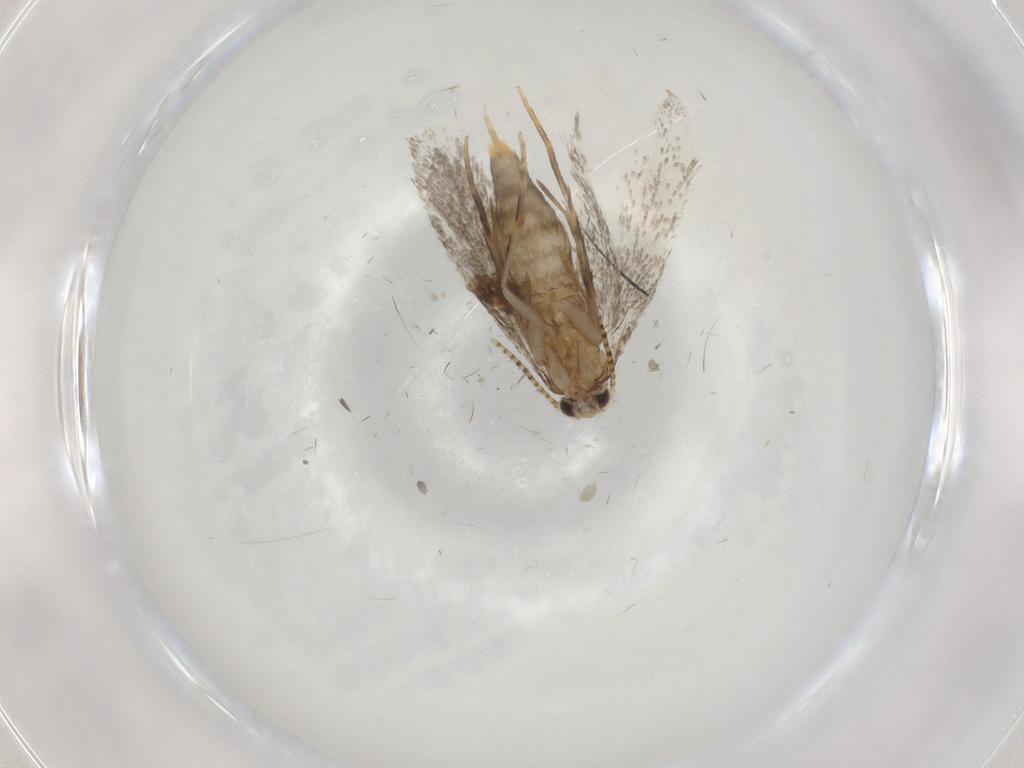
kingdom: Animalia
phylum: Arthropoda
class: Insecta
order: Lepidoptera
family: Tineidae
